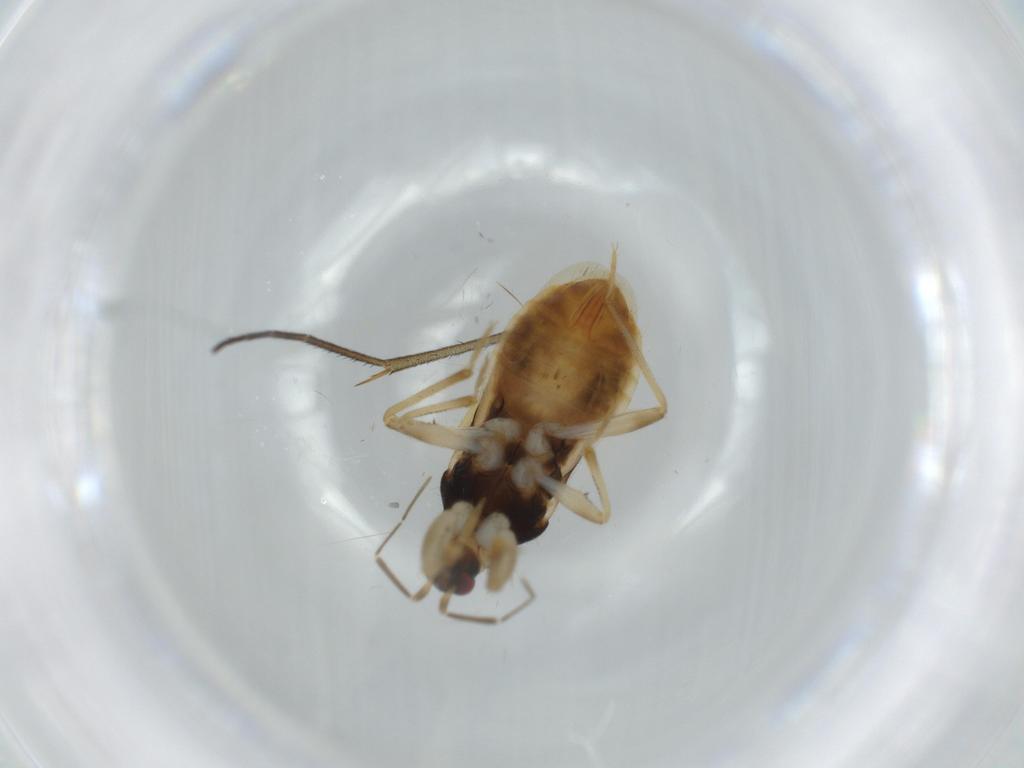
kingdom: Animalia
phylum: Arthropoda
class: Insecta
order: Hemiptera
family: Nabidae
